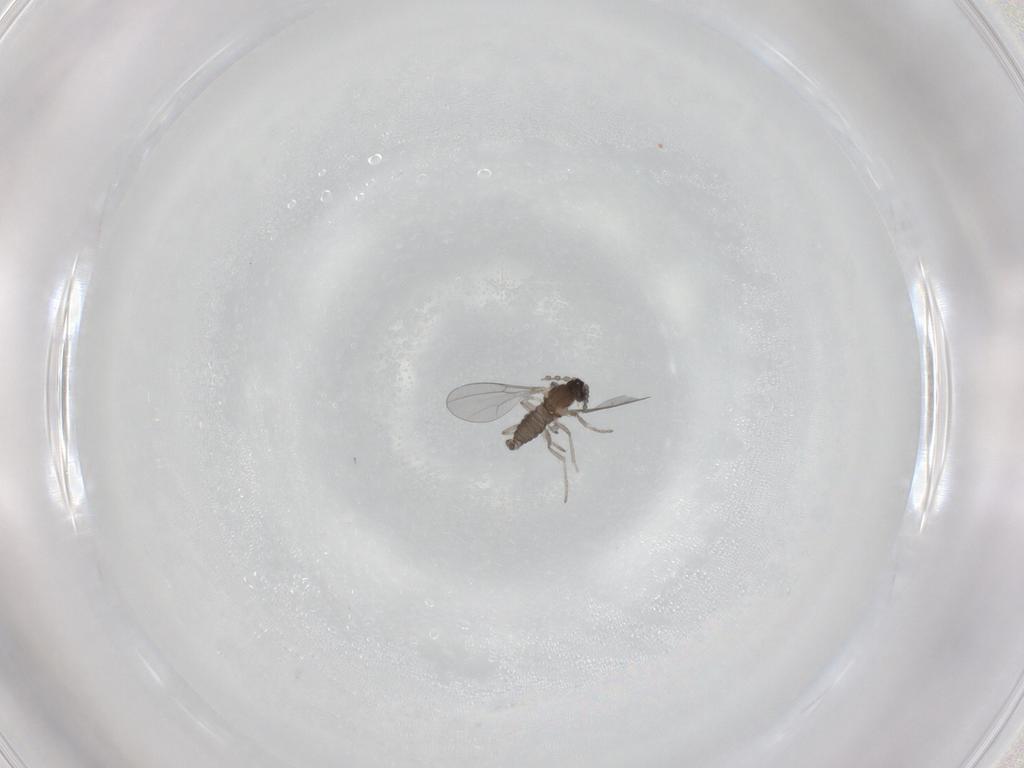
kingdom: Animalia
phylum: Arthropoda
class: Insecta
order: Diptera
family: Cecidomyiidae
